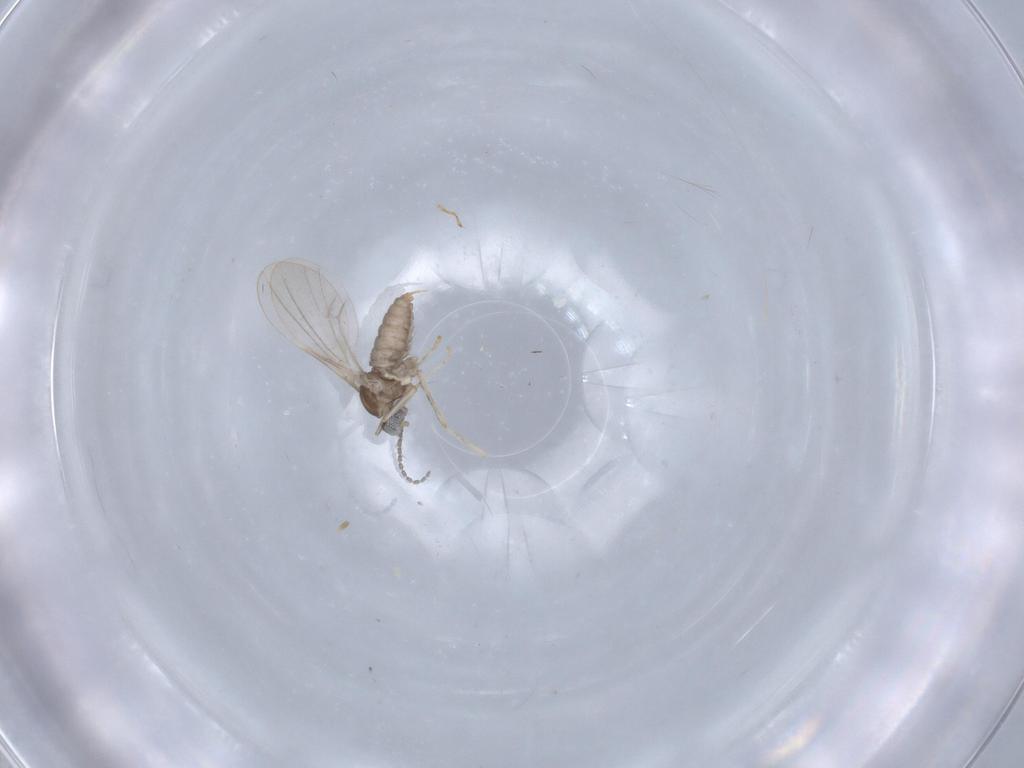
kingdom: Animalia
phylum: Arthropoda
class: Insecta
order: Diptera
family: Cecidomyiidae
